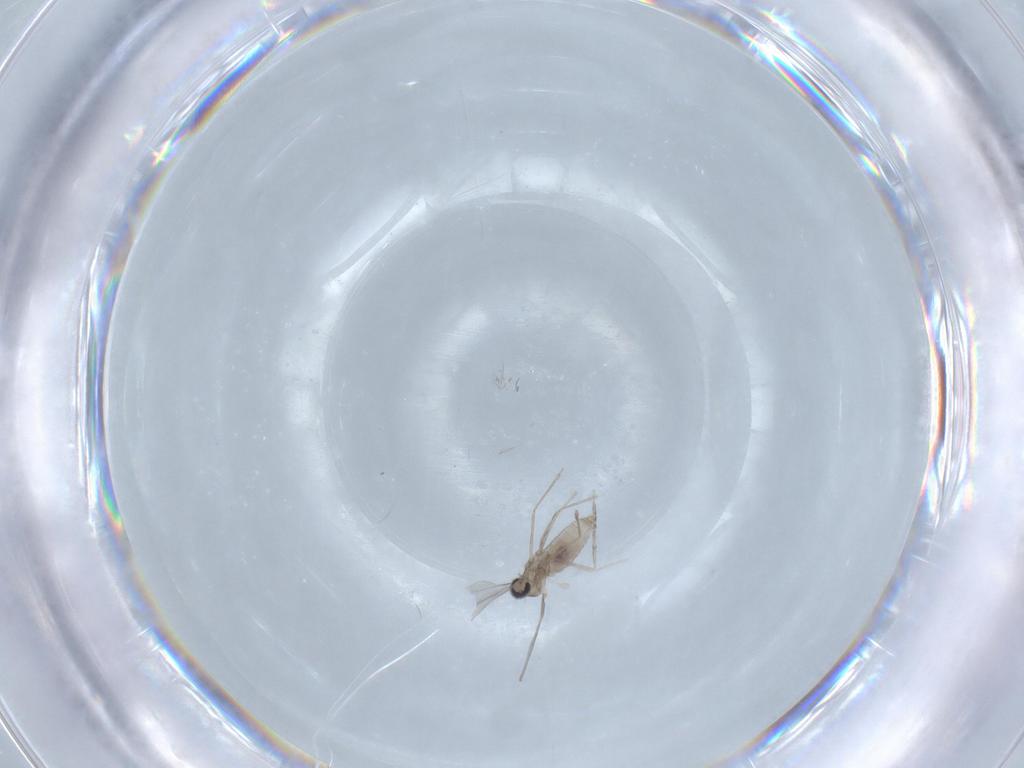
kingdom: Animalia
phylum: Arthropoda
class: Insecta
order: Diptera
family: Cecidomyiidae
